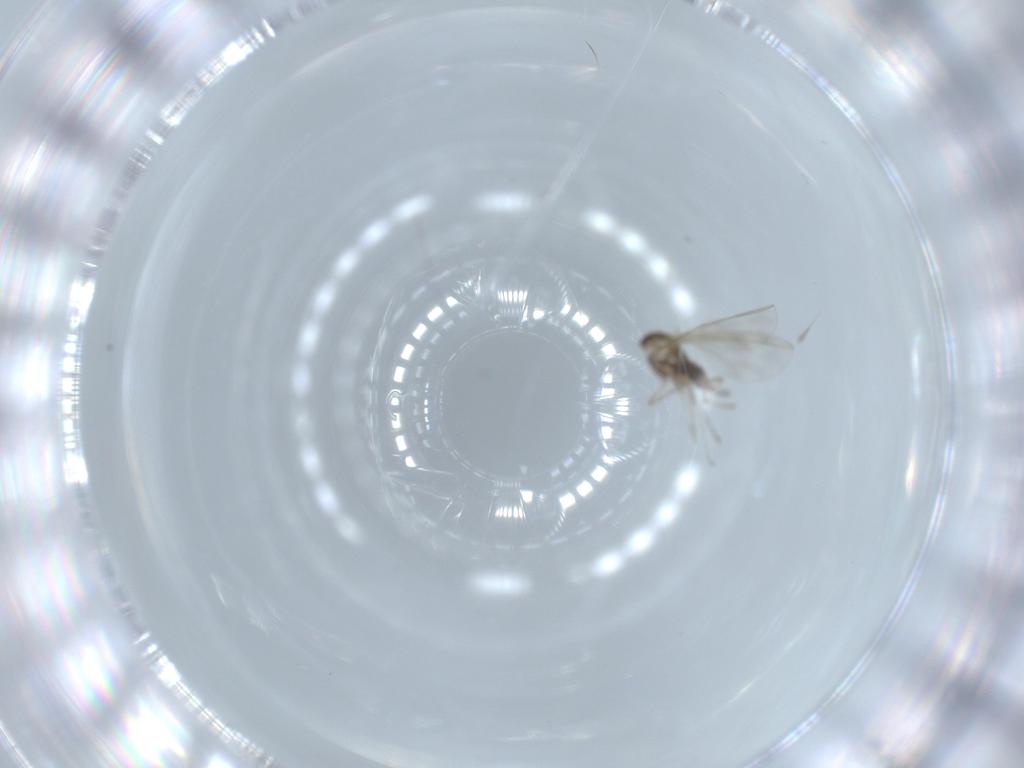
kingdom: Animalia
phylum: Arthropoda
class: Insecta
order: Diptera
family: Cecidomyiidae
